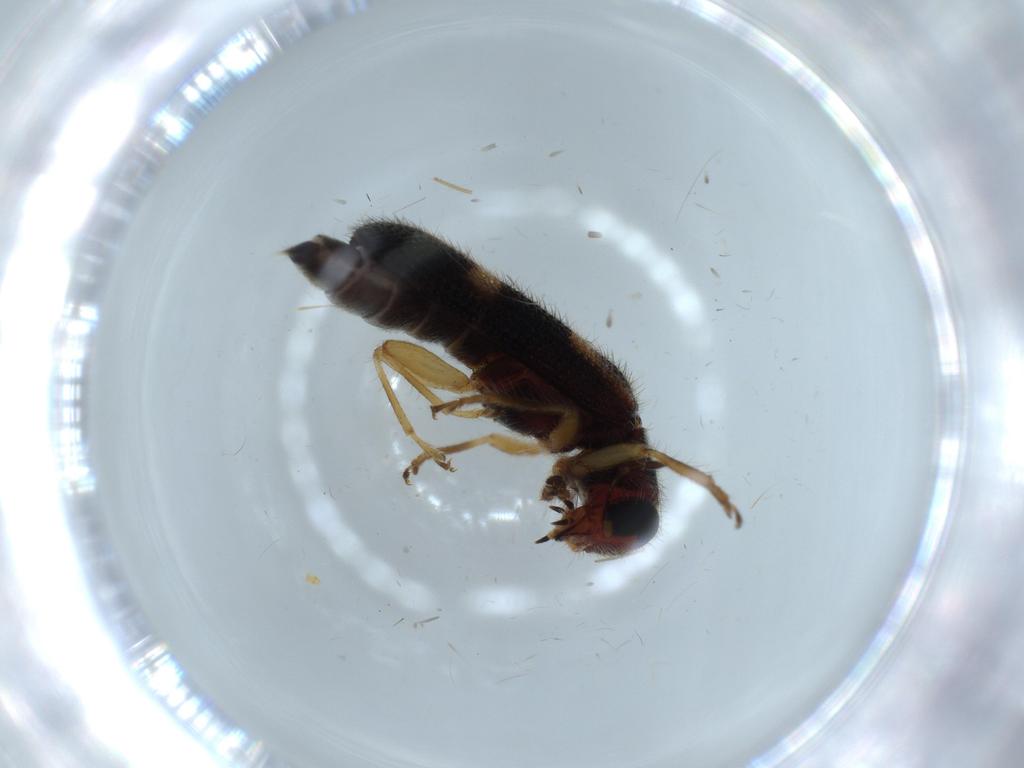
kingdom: Animalia
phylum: Arthropoda
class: Insecta
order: Coleoptera
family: Cleridae
